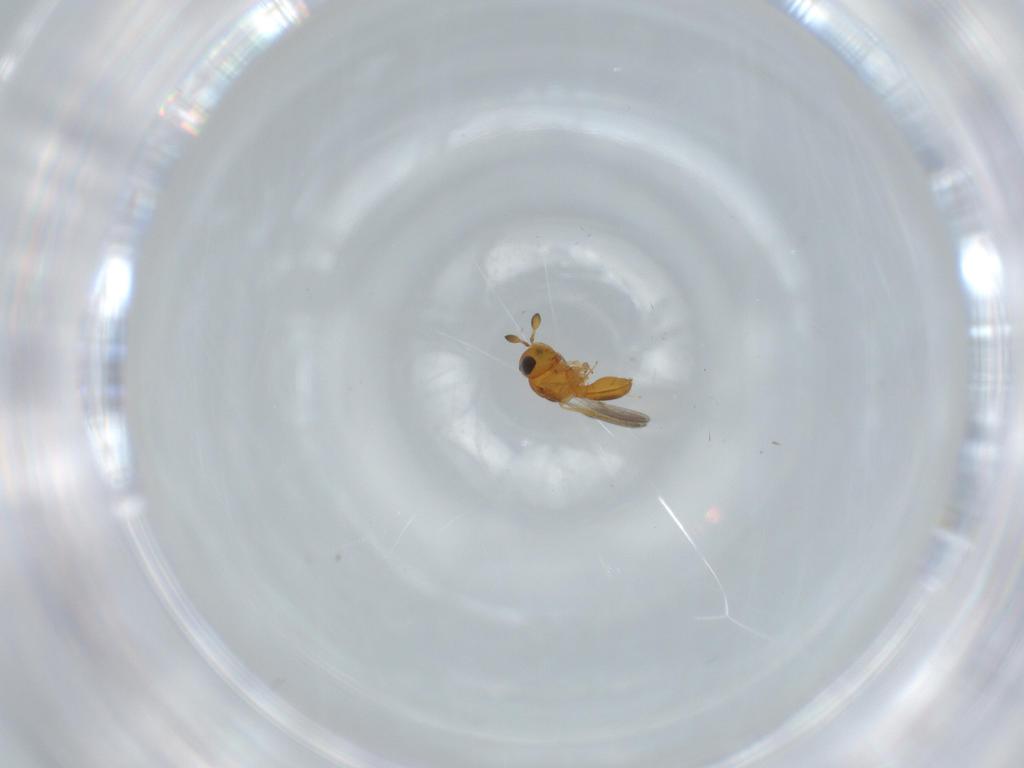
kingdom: Animalia
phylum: Arthropoda
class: Insecta
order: Hymenoptera
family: Scelionidae
